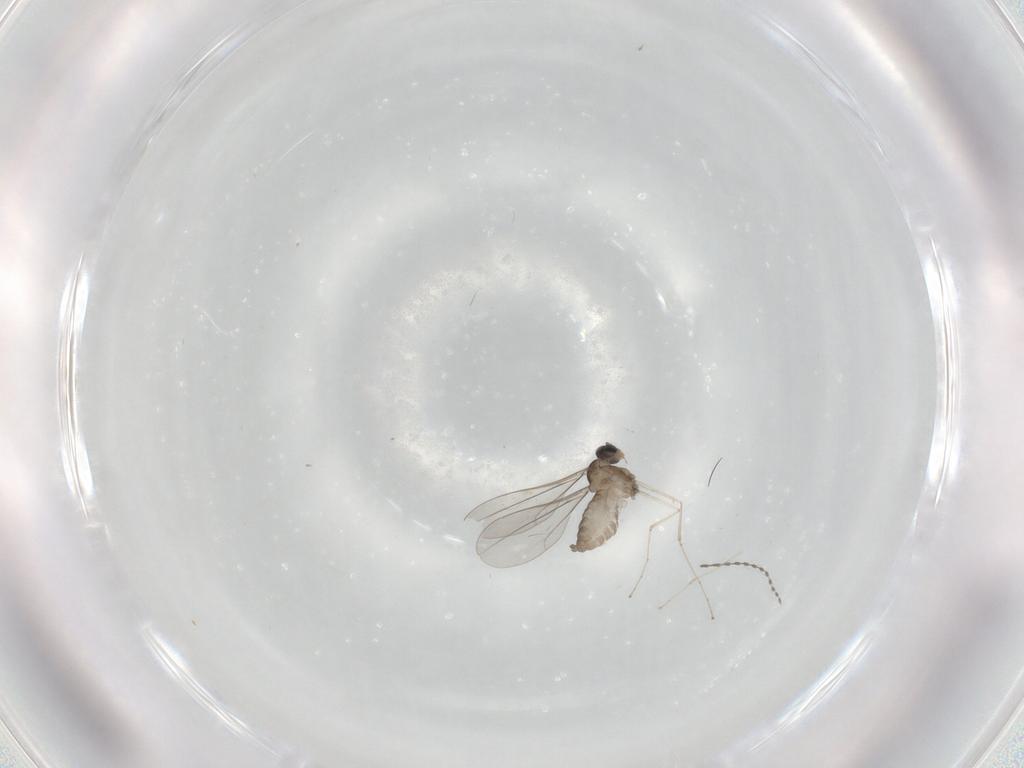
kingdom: Animalia
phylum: Arthropoda
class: Insecta
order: Diptera
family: Cecidomyiidae
